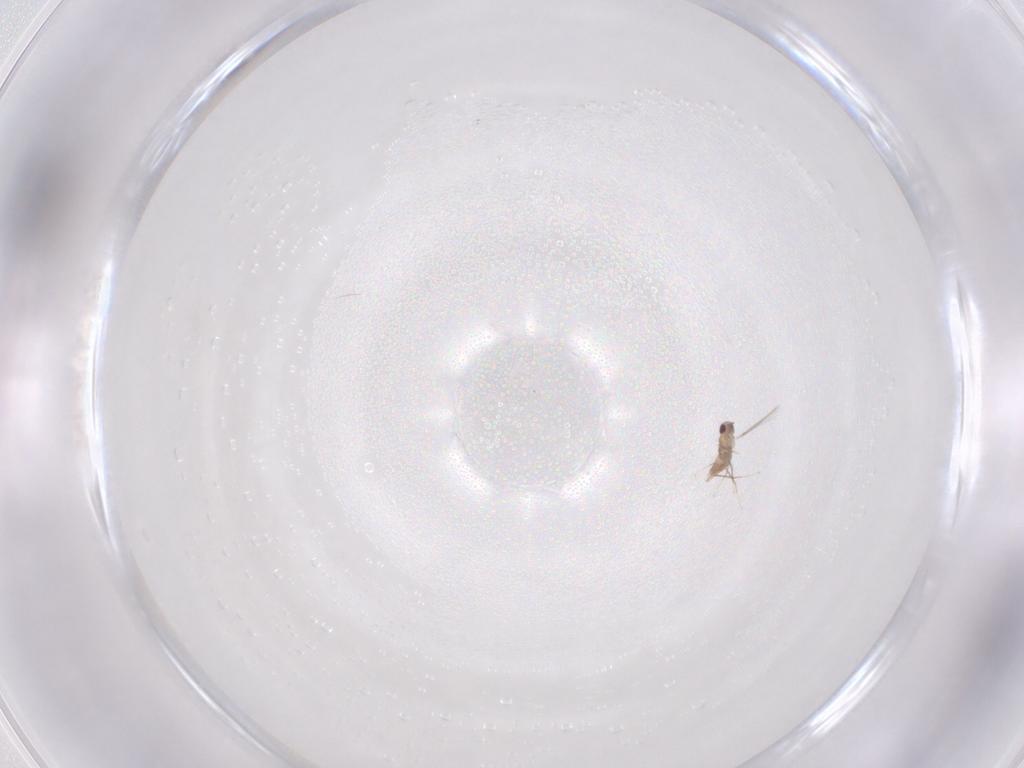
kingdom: Animalia
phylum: Arthropoda
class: Insecta
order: Hymenoptera
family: Mymaridae
